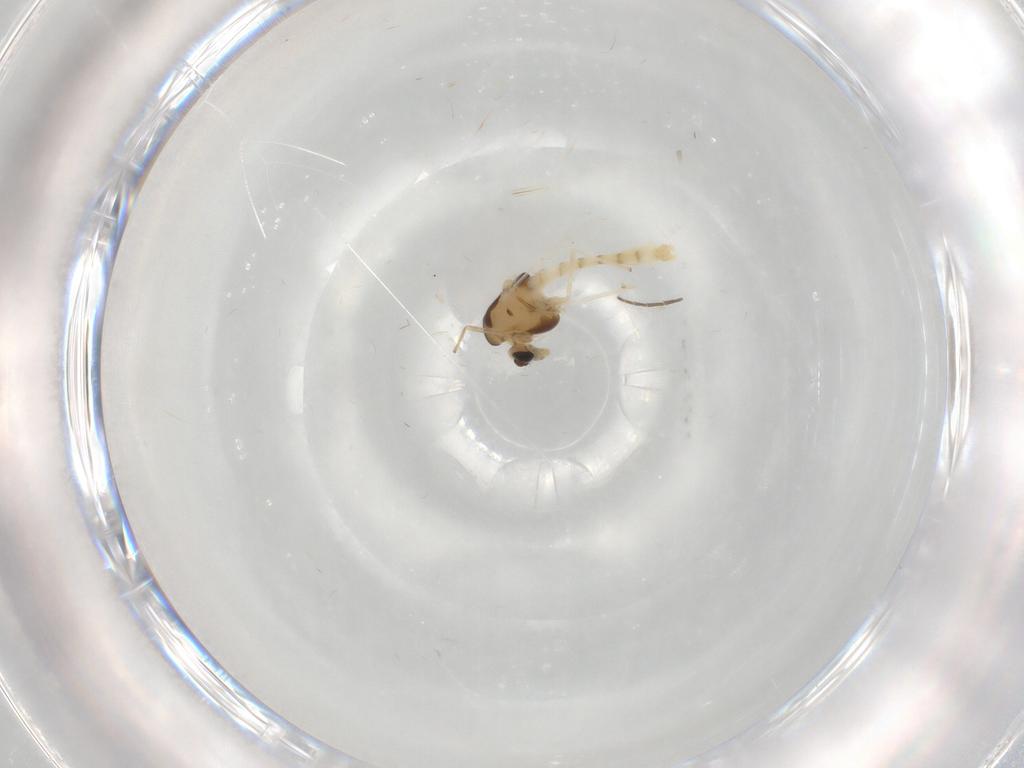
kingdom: Animalia
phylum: Arthropoda
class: Insecta
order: Diptera
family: Chironomidae
